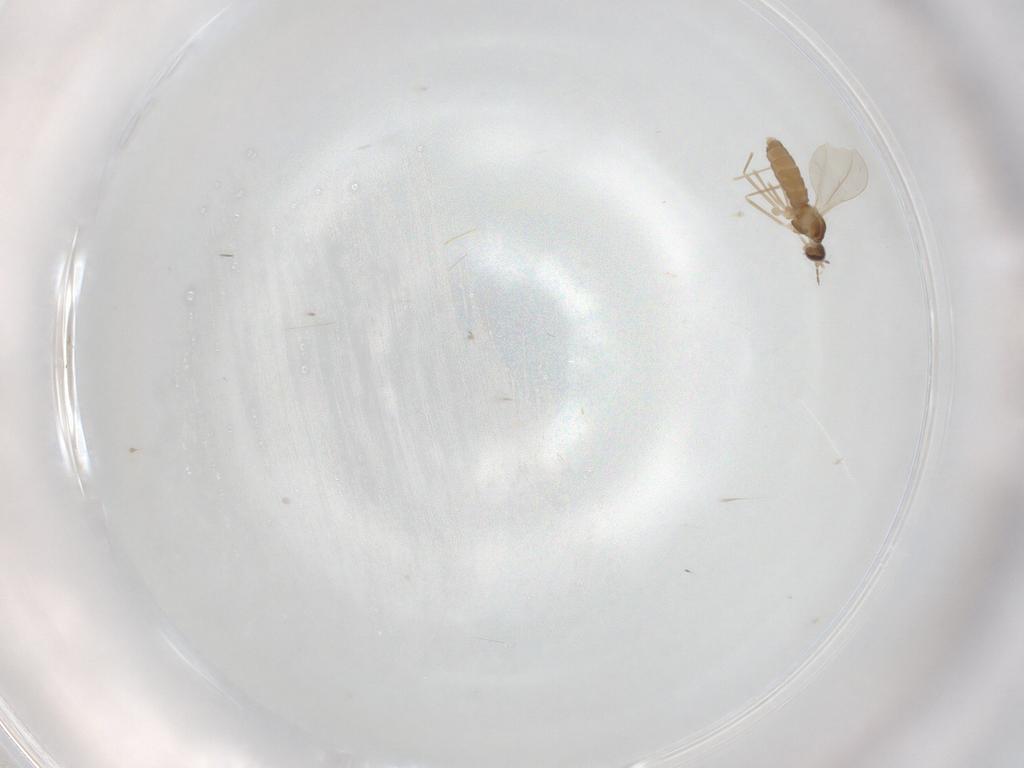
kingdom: Animalia
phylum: Arthropoda
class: Insecta
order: Diptera
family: Cecidomyiidae
